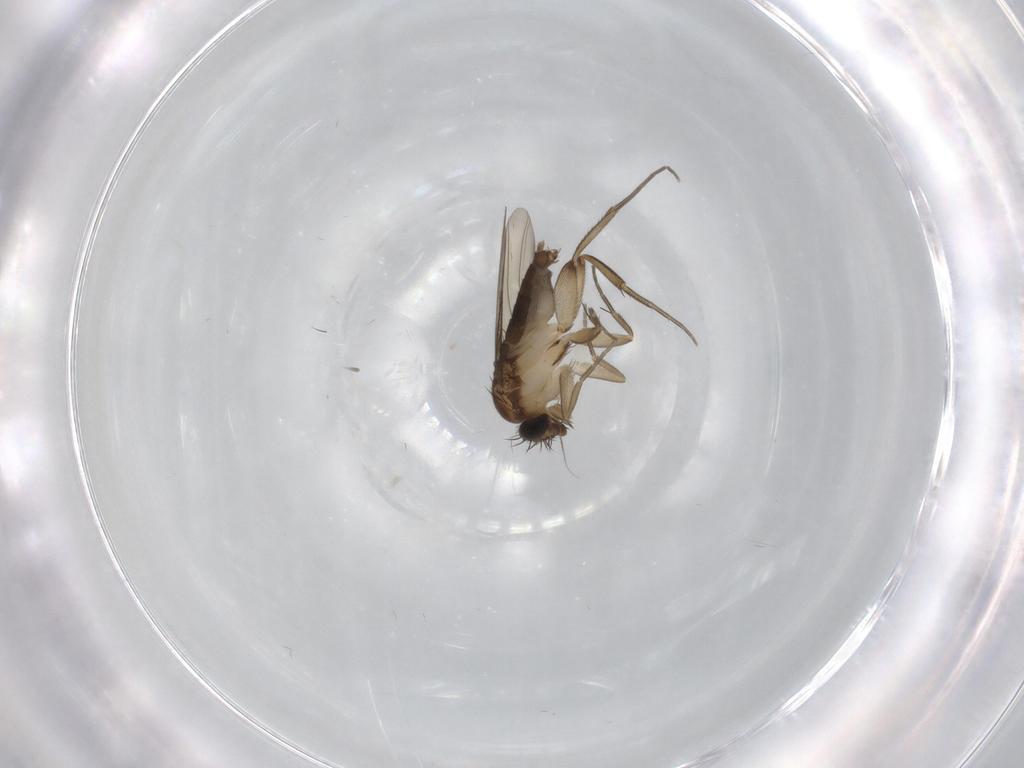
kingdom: Animalia
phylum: Arthropoda
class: Insecta
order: Diptera
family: Phoridae
